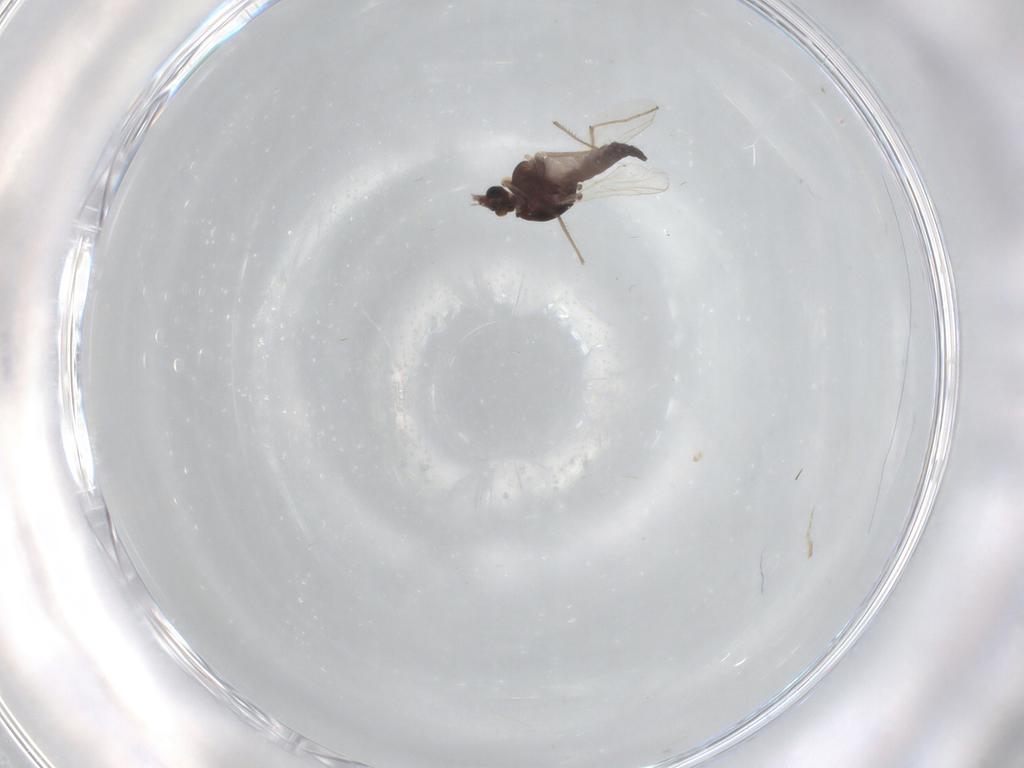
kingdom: Animalia
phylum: Arthropoda
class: Insecta
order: Diptera
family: Chironomidae
